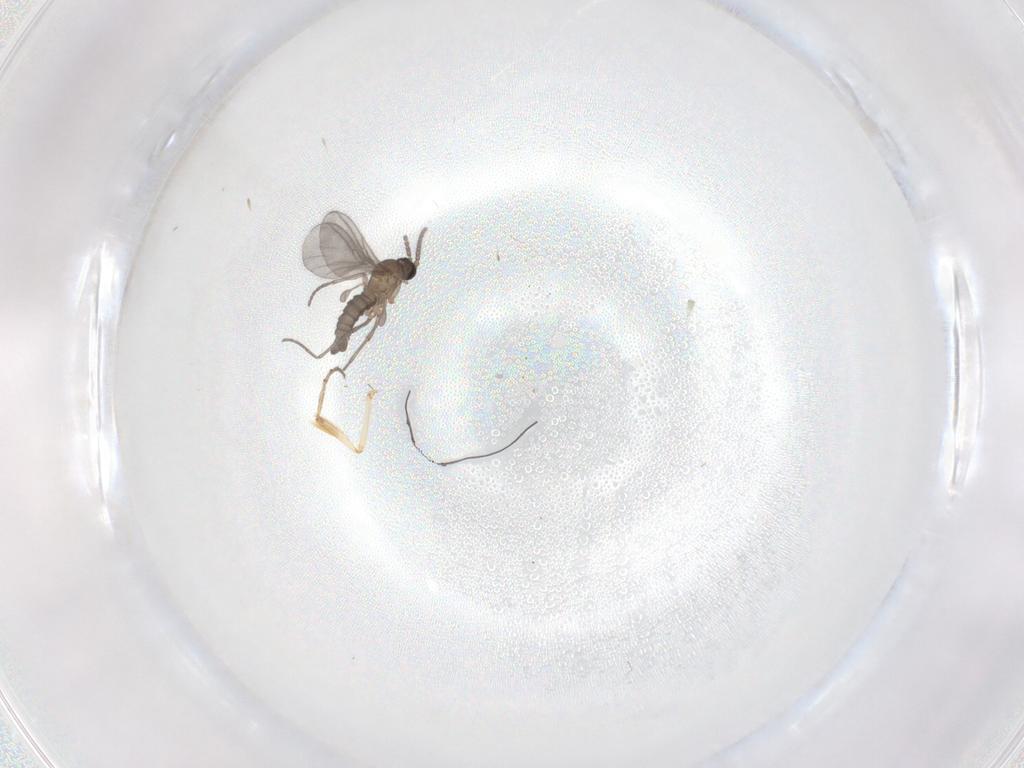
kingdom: Animalia
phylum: Arthropoda
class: Insecta
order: Diptera
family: Sciaridae
